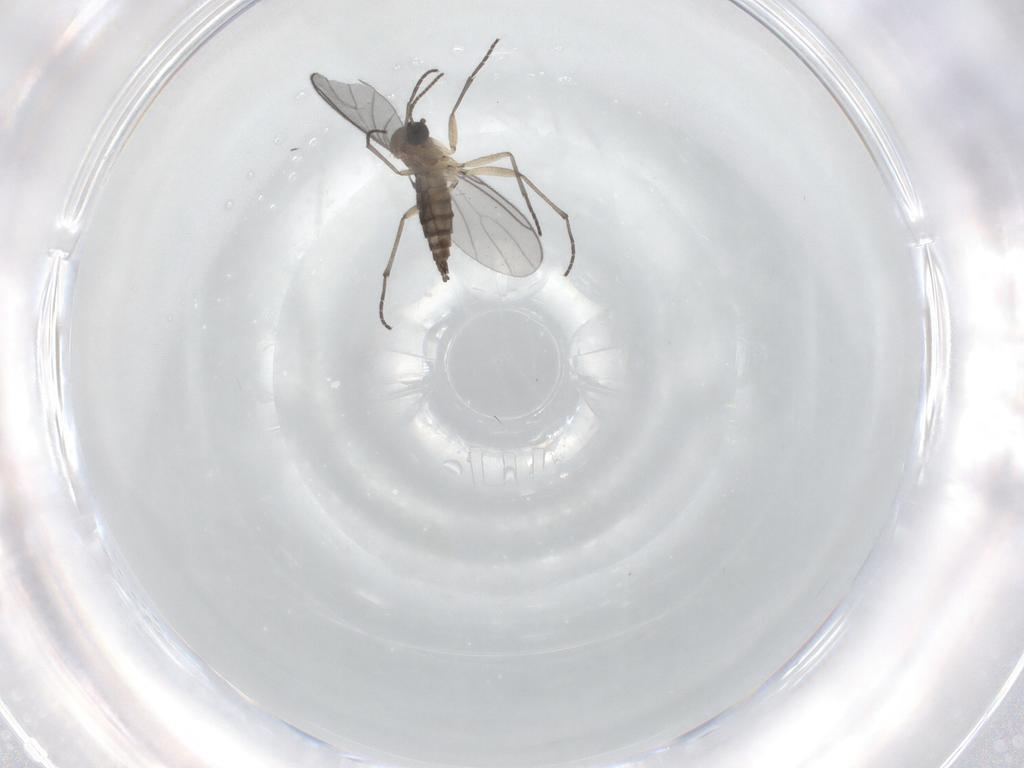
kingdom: Animalia
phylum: Arthropoda
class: Insecta
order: Diptera
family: Sciaridae
